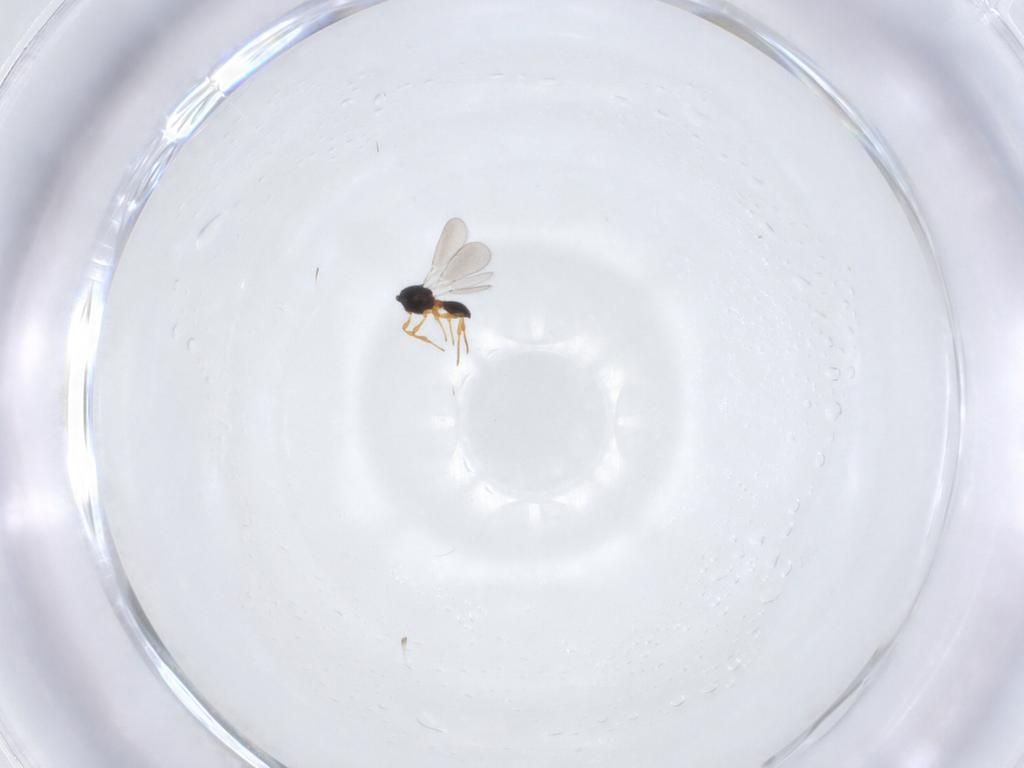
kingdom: Animalia
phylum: Arthropoda
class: Insecta
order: Hymenoptera
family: Platygastridae
